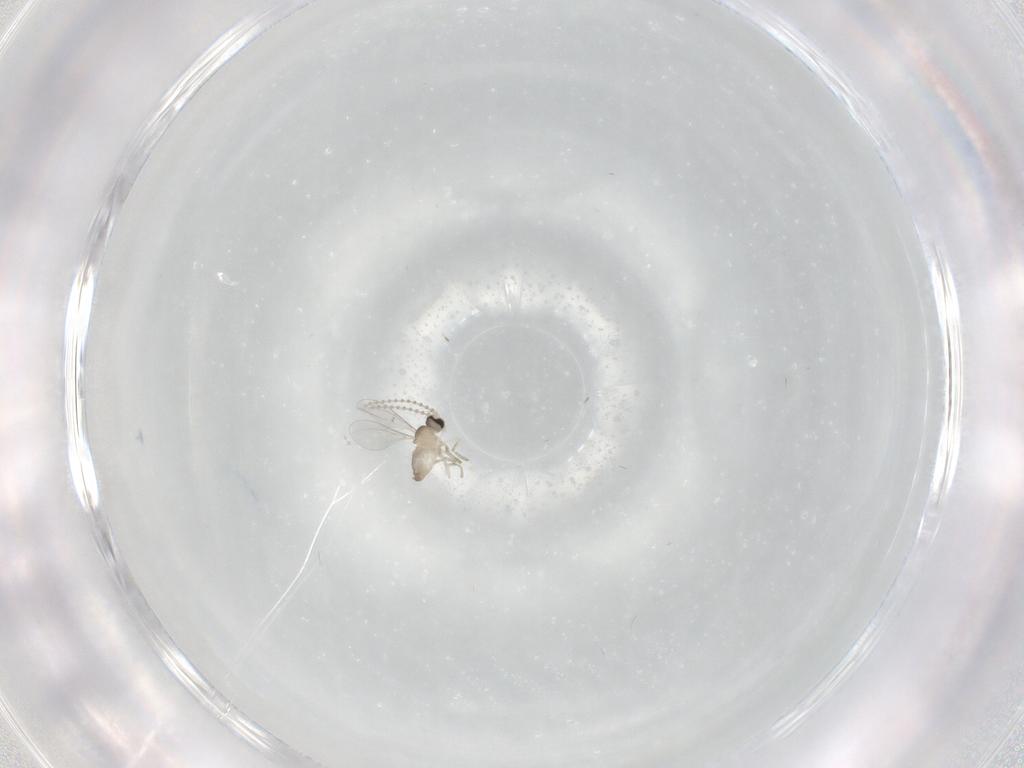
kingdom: Animalia
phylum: Arthropoda
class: Insecta
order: Diptera
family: Cecidomyiidae
